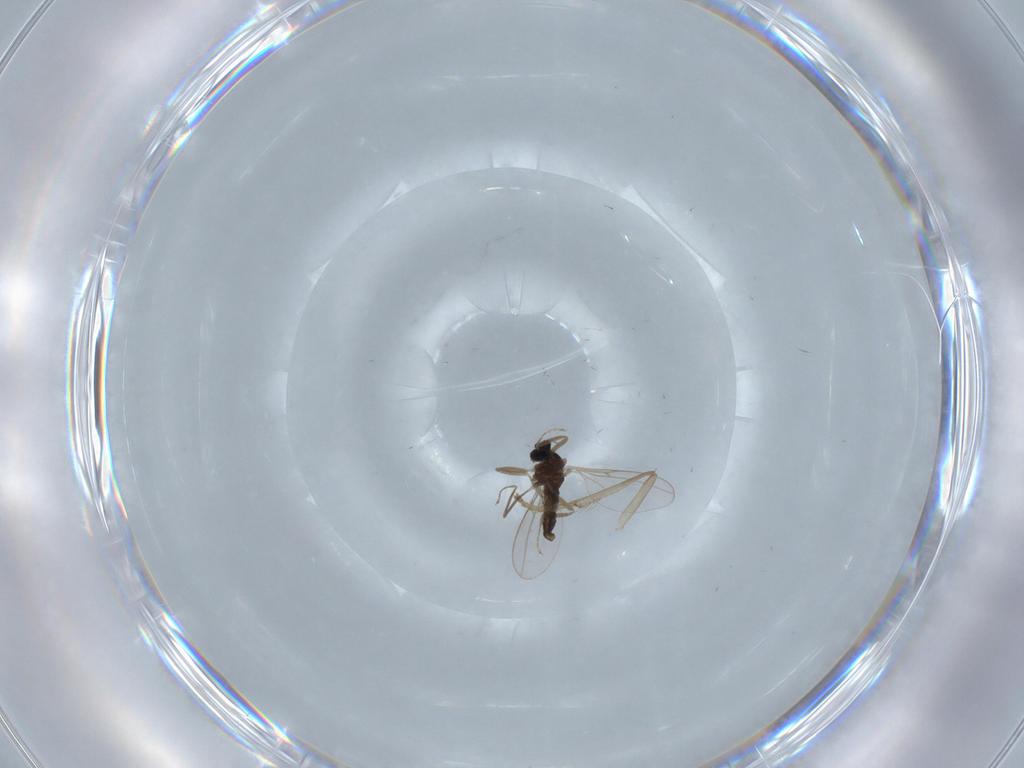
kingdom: Animalia
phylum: Arthropoda
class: Insecta
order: Diptera
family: Cecidomyiidae
